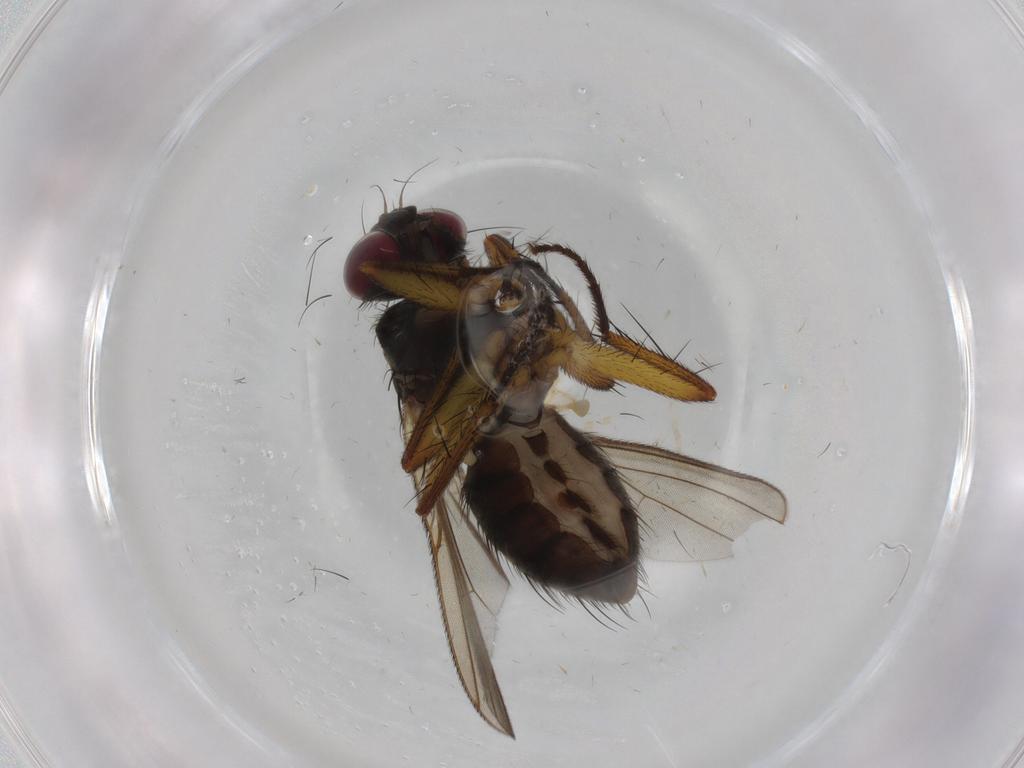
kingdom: Animalia
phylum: Arthropoda
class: Insecta
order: Diptera
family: Muscidae
